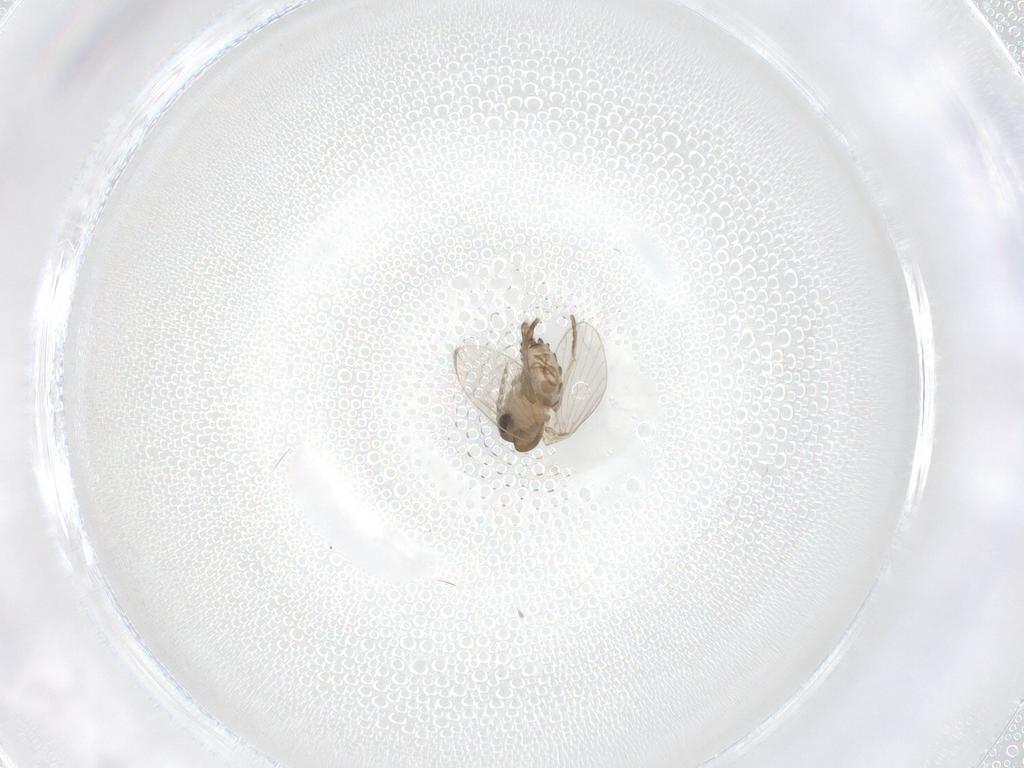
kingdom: Animalia
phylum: Arthropoda
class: Insecta
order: Diptera
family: Psychodidae
